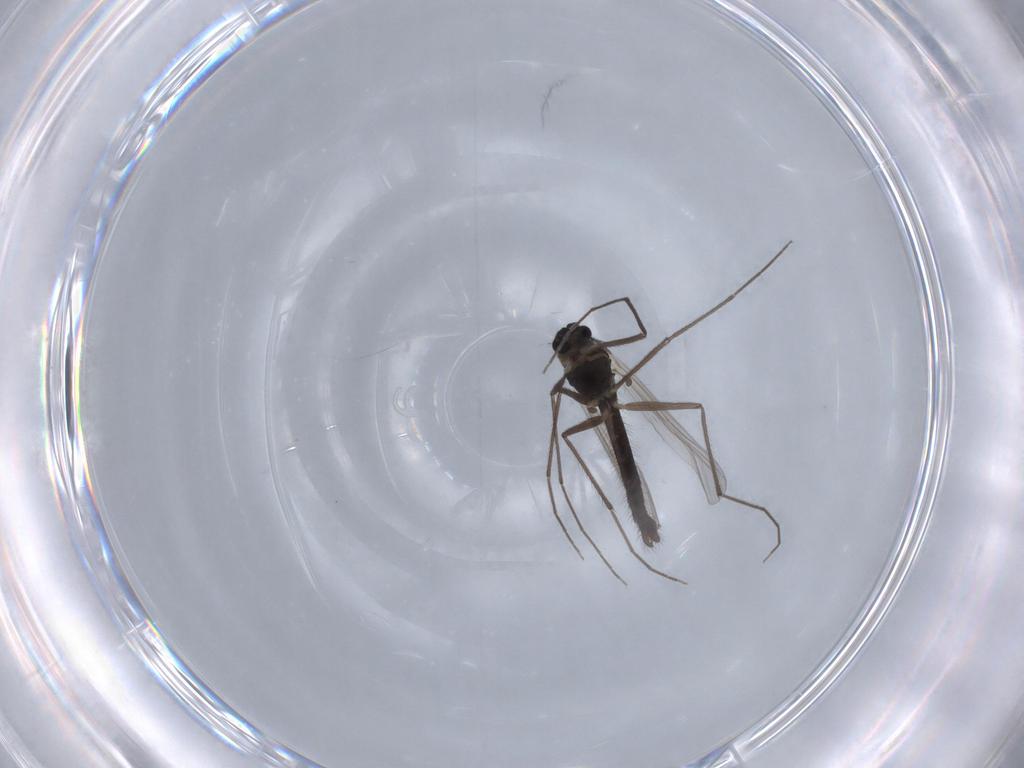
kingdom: Animalia
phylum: Arthropoda
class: Insecta
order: Diptera
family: Chironomidae
